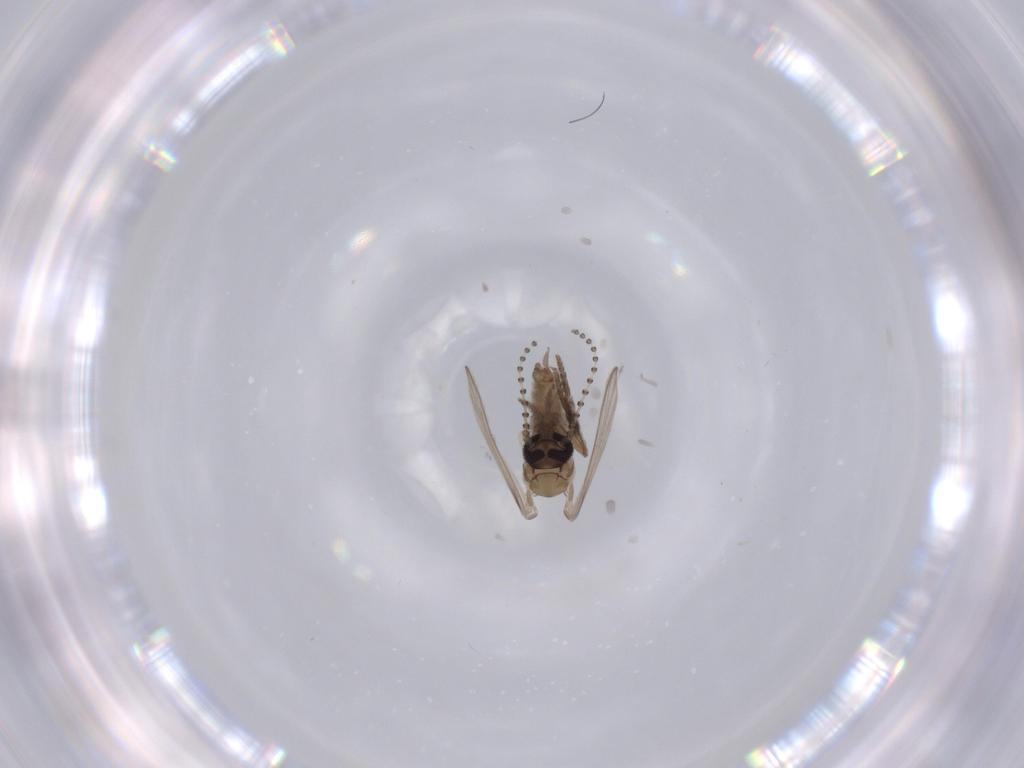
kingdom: Animalia
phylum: Arthropoda
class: Insecta
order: Diptera
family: Psychodidae
